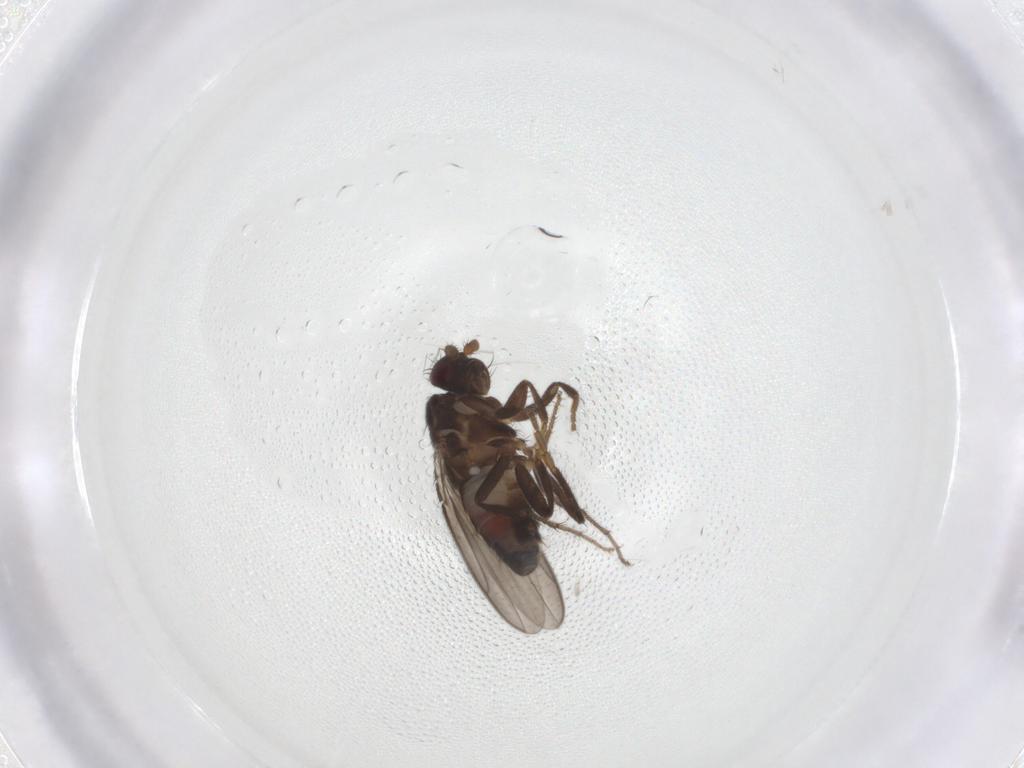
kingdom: Animalia
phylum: Arthropoda
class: Insecta
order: Diptera
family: Sphaeroceridae
